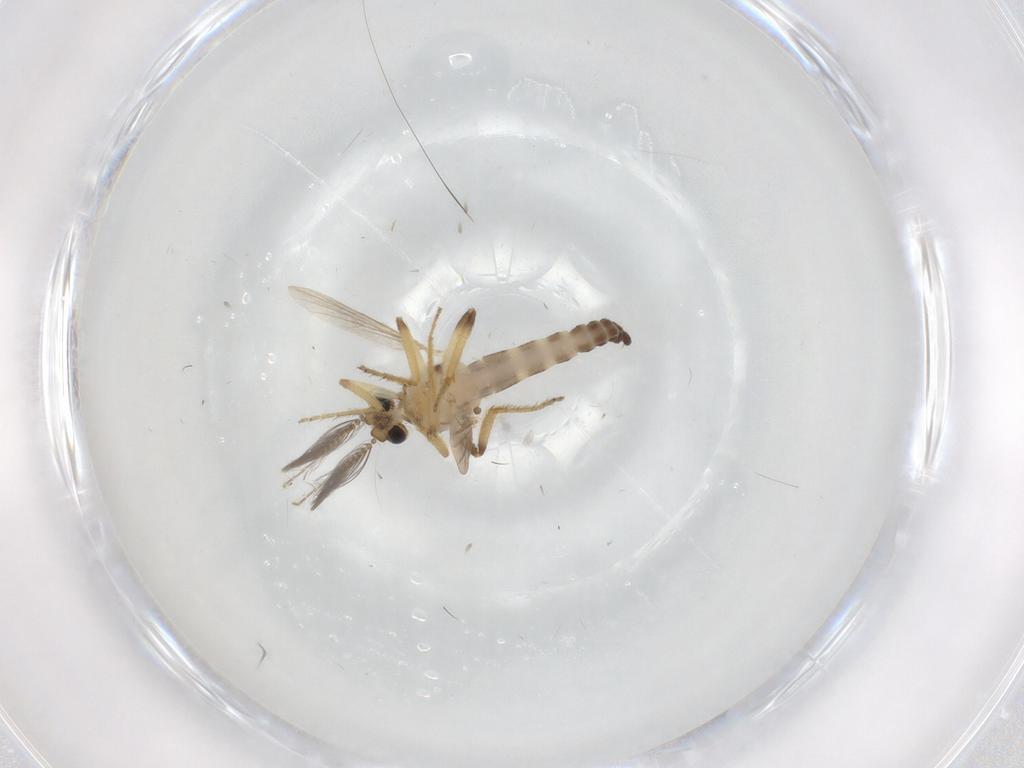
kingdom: Animalia
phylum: Arthropoda
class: Insecta
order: Diptera
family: Ceratopogonidae
